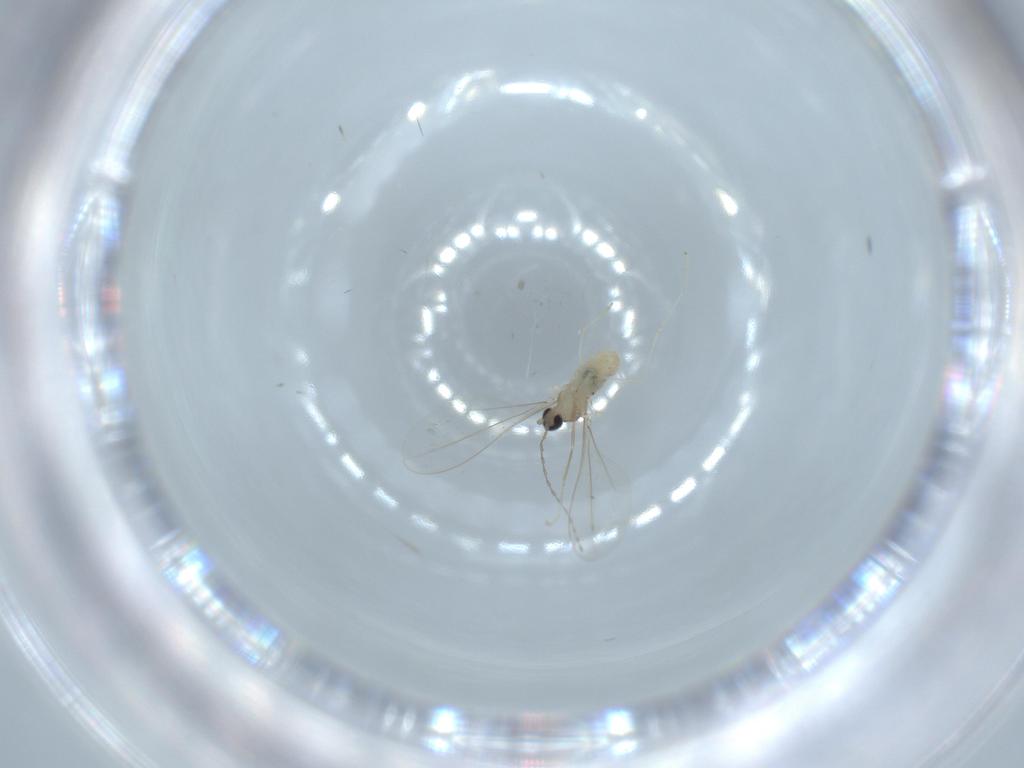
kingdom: Animalia
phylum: Arthropoda
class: Insecta
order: Diptera
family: Cecidomyiidae
